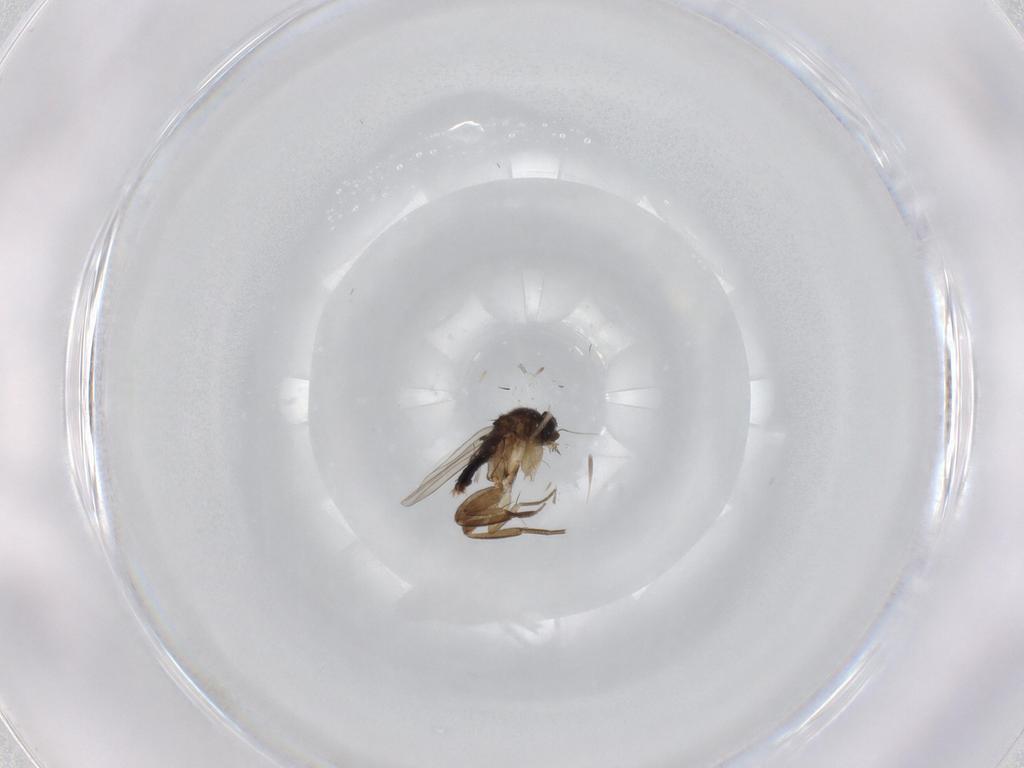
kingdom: Animalia
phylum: Arthropoda
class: Insecta
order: Diptera
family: Phoridae
